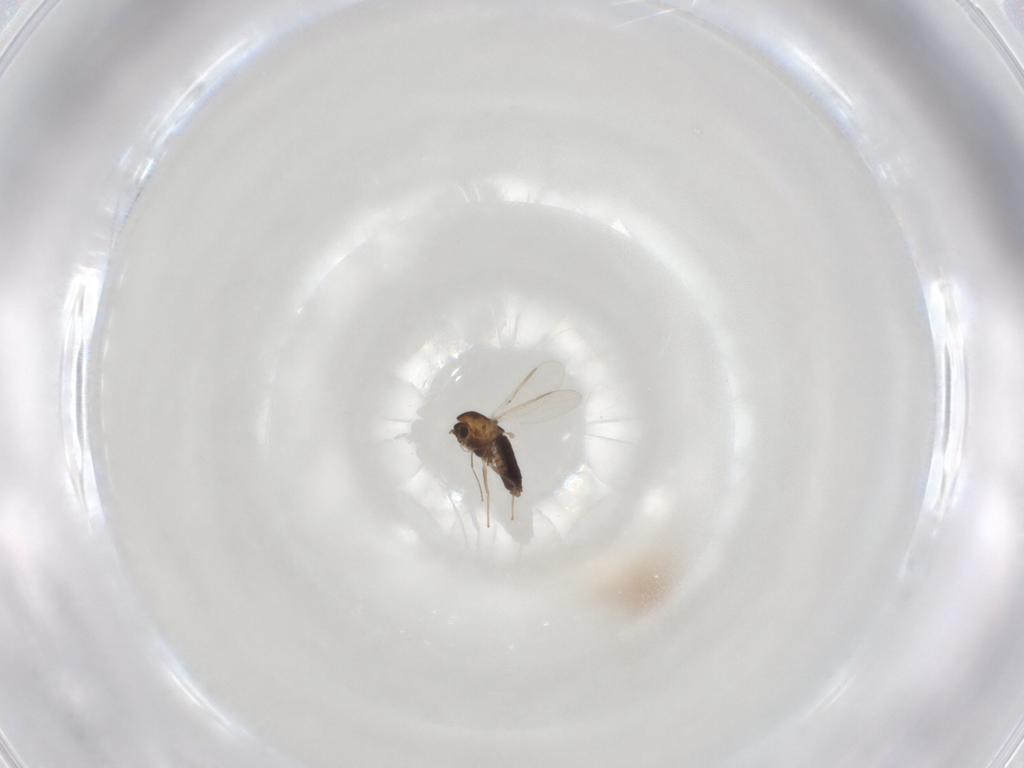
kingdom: Animalia
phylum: Arthropoda
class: Insecta
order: Diptera
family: Chironomidae
